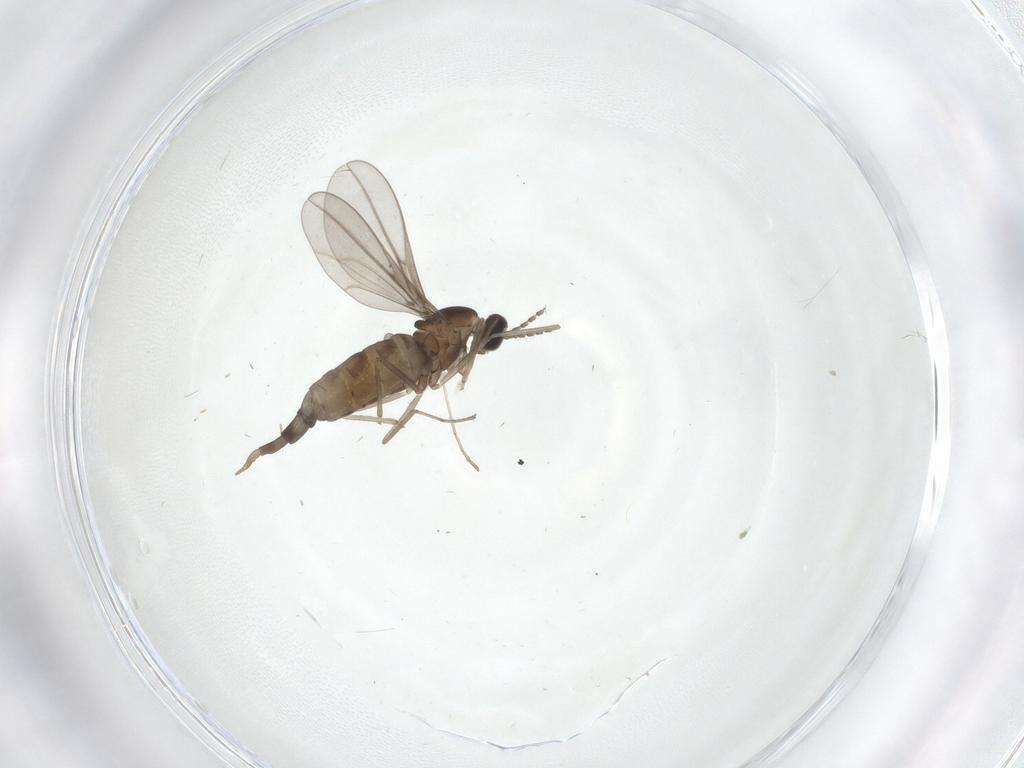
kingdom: Animalia
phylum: Arthropoda
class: Insecta
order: Diptera
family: Cecidomyiidae
